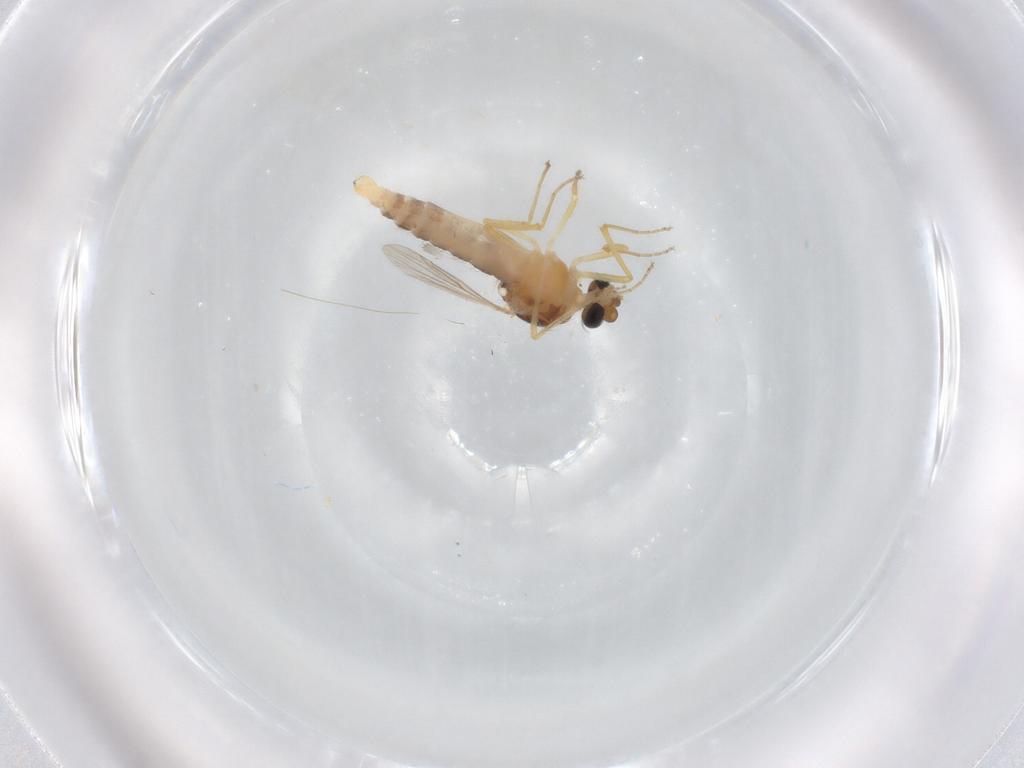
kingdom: Animalia
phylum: Arthropoda
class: Insecta
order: Diptera
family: Ceratopogonidae
